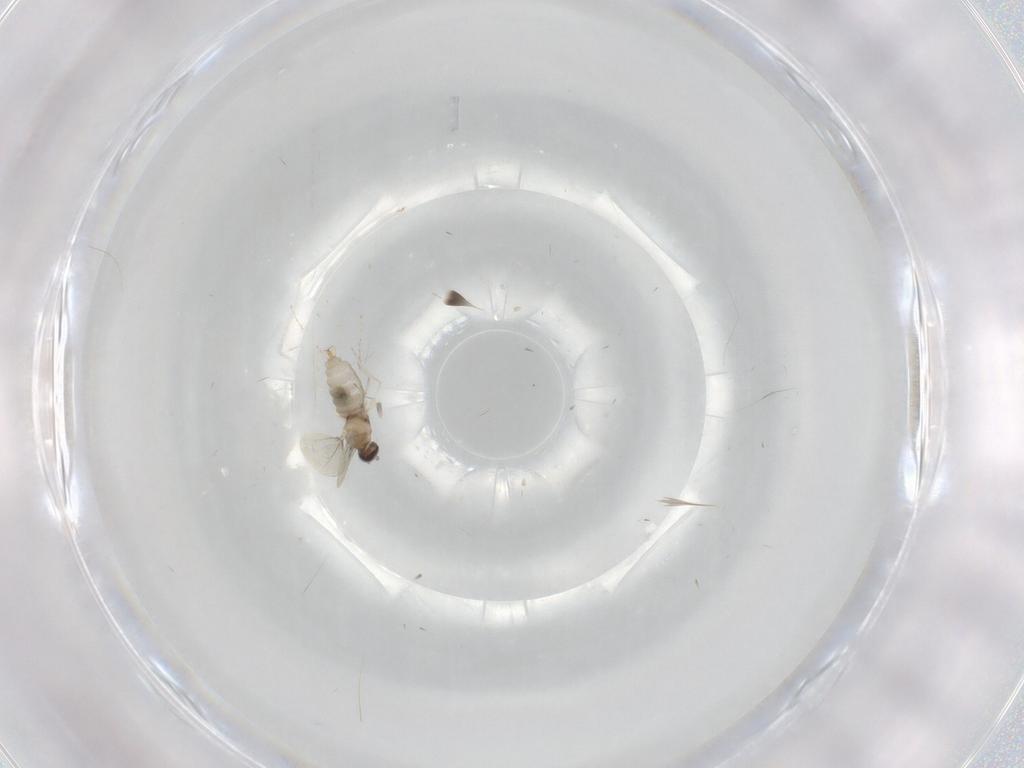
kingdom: Animalia
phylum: Arthropoda
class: Insecta
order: Diptera
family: Cecidomyiidae
